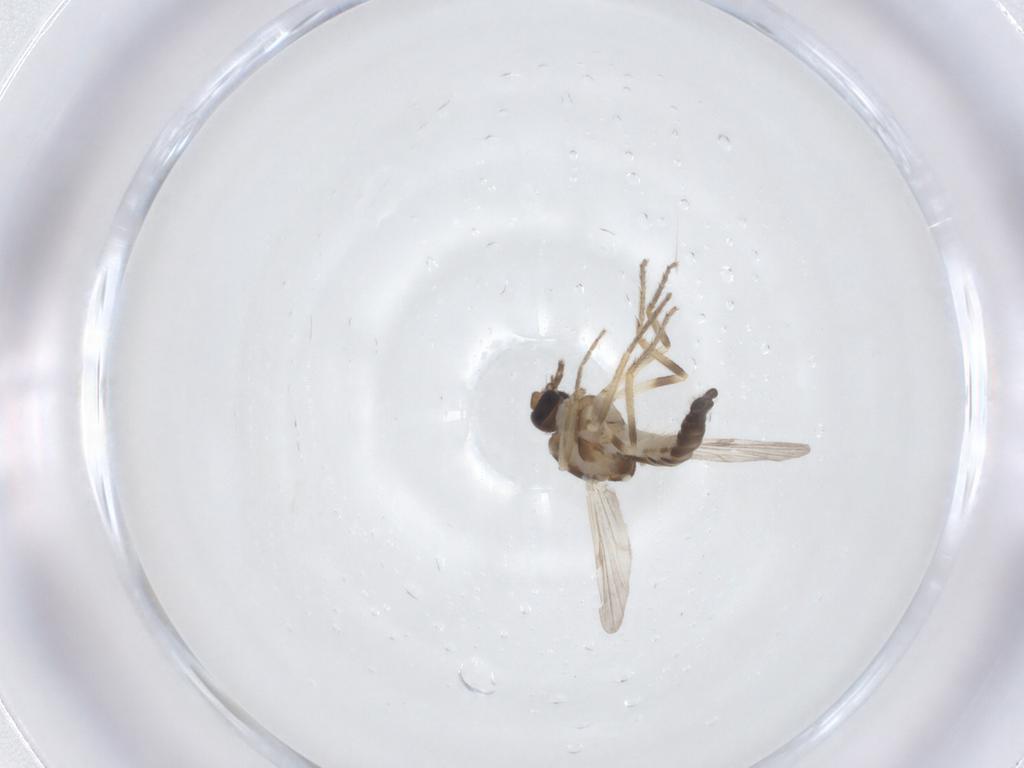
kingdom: Animalia
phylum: Arthropoda
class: Insecta
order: Diptera
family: Ceratopogonidae
